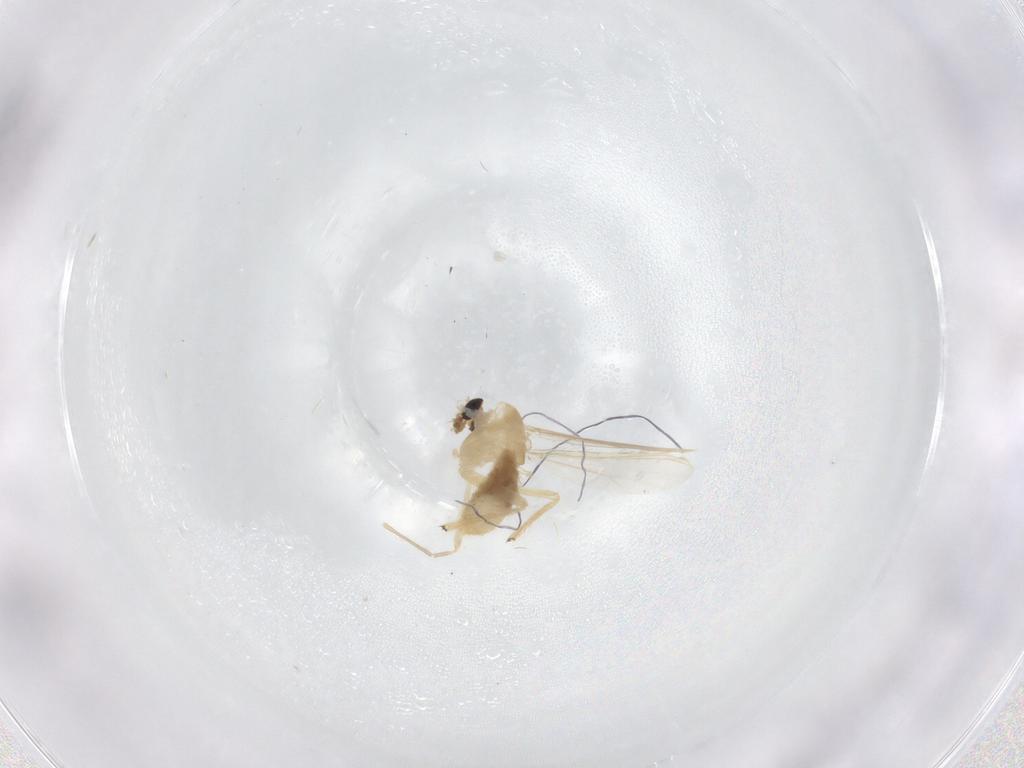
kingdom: Animalia
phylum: Arthropoda
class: Insecta
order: Diptera
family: Chironomidae
